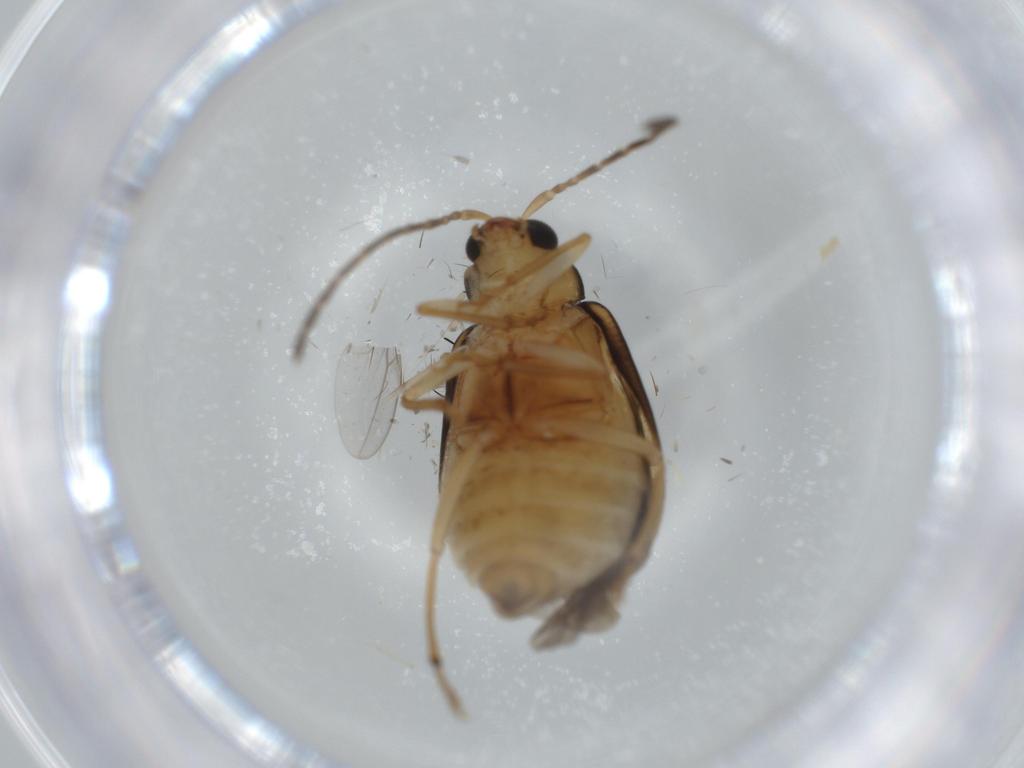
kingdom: Animalia
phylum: Arthropoda
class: Insecta
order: Coleoptera
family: Chrysomelidae
